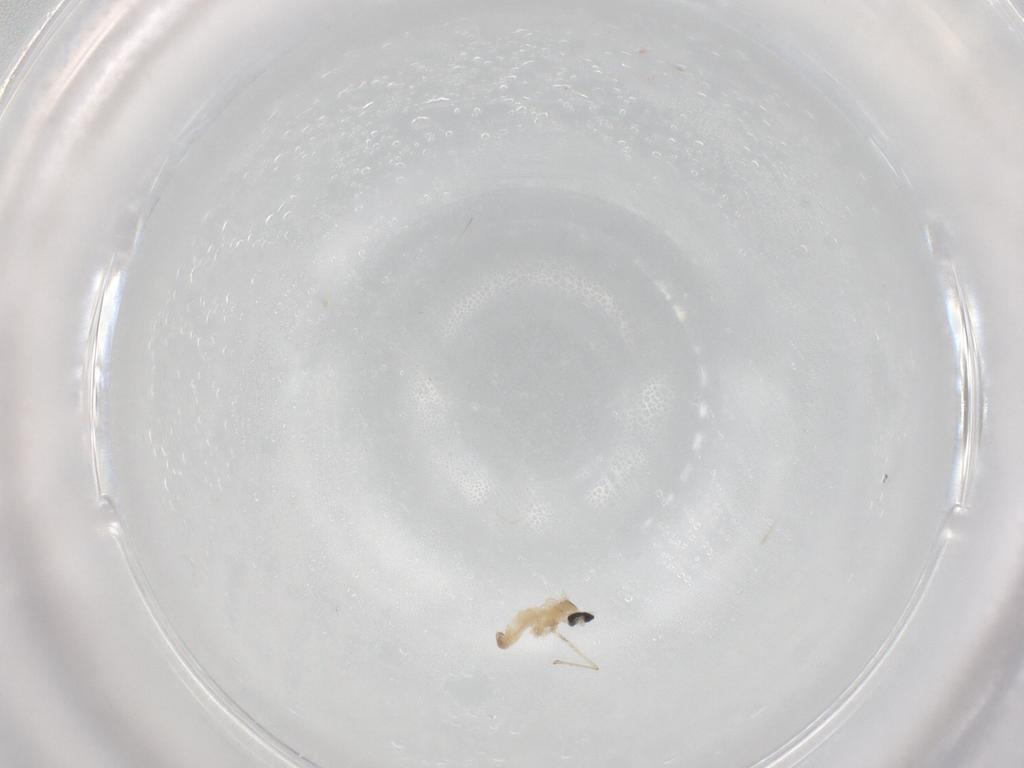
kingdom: Animalia
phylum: Arthropoda
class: Insecta
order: Diptera
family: Cecidomyiidae
